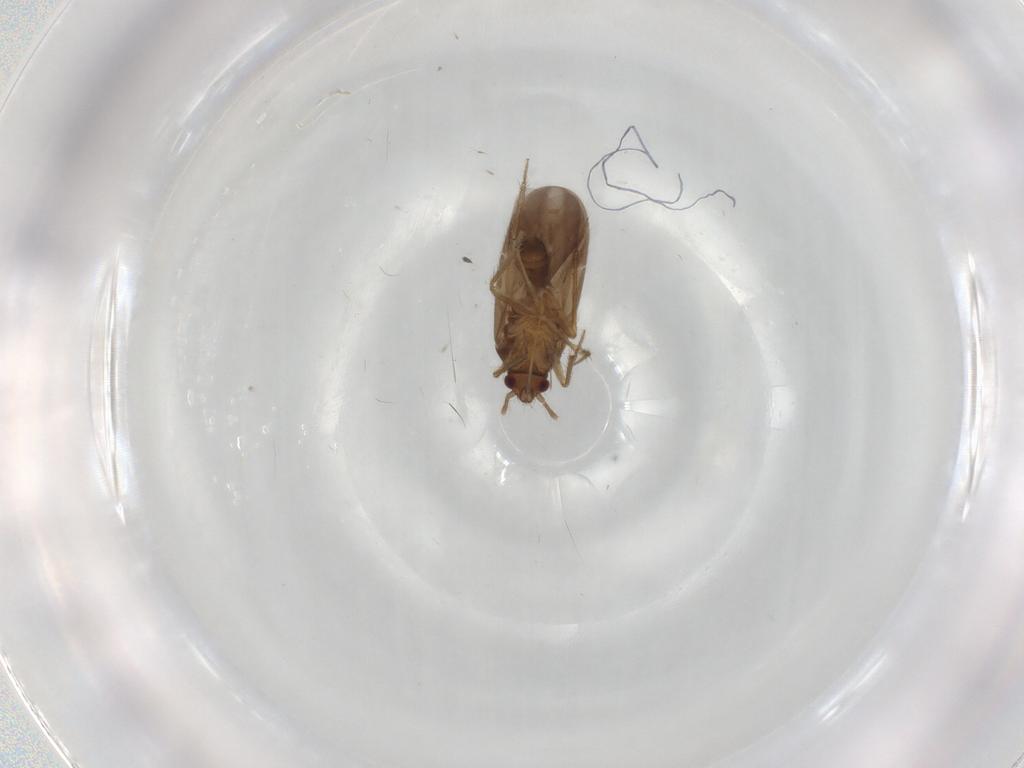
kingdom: Animalia
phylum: Arthropoda
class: Insecta
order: Hemiptera
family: Ceratocombidae
